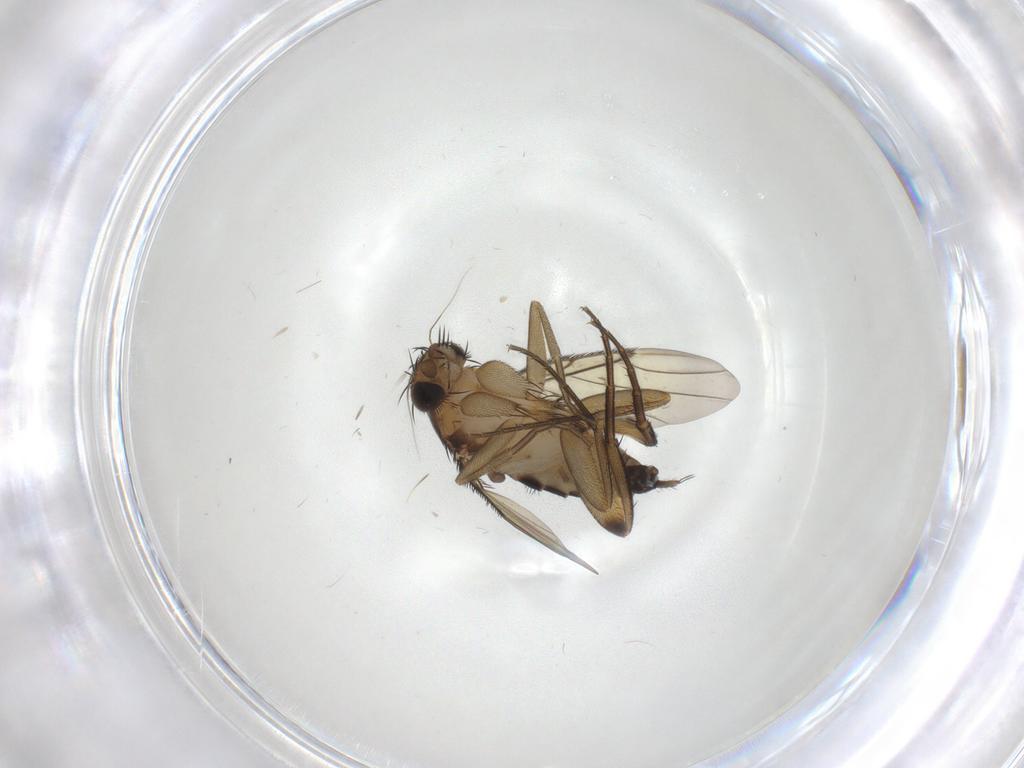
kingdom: Animalia
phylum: Arthropoda
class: Insecta
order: Diptera
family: Phoridae
